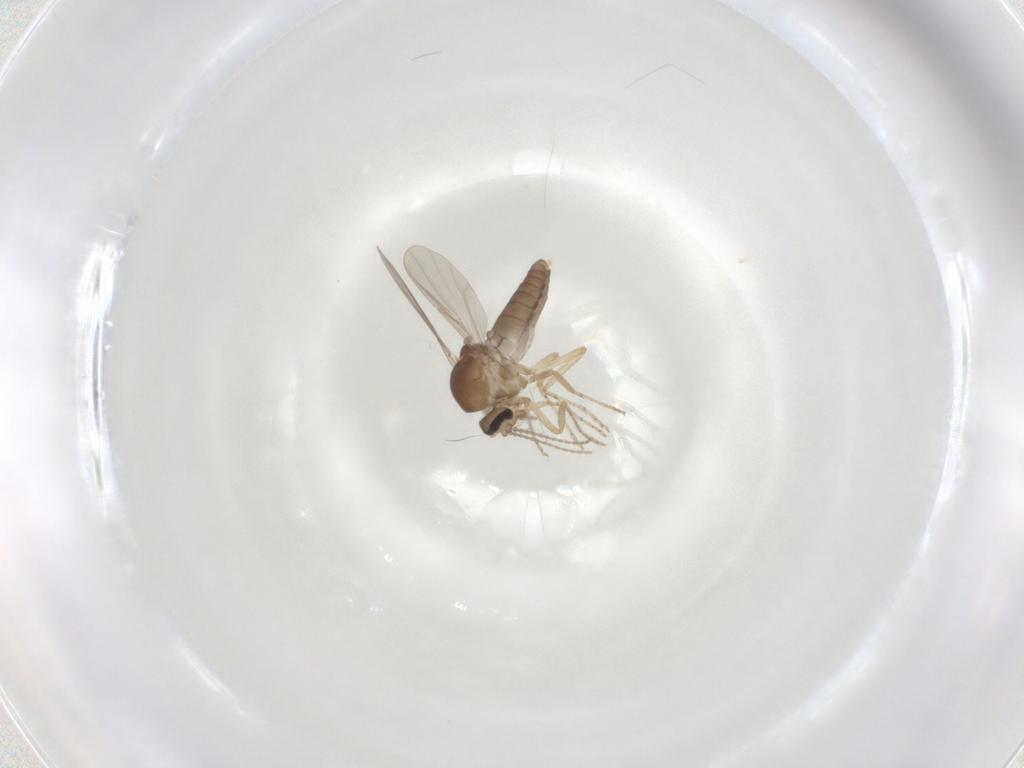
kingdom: Animalia
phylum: Arthropoda
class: Insecta
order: Diptera
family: Ceratopogonidae
